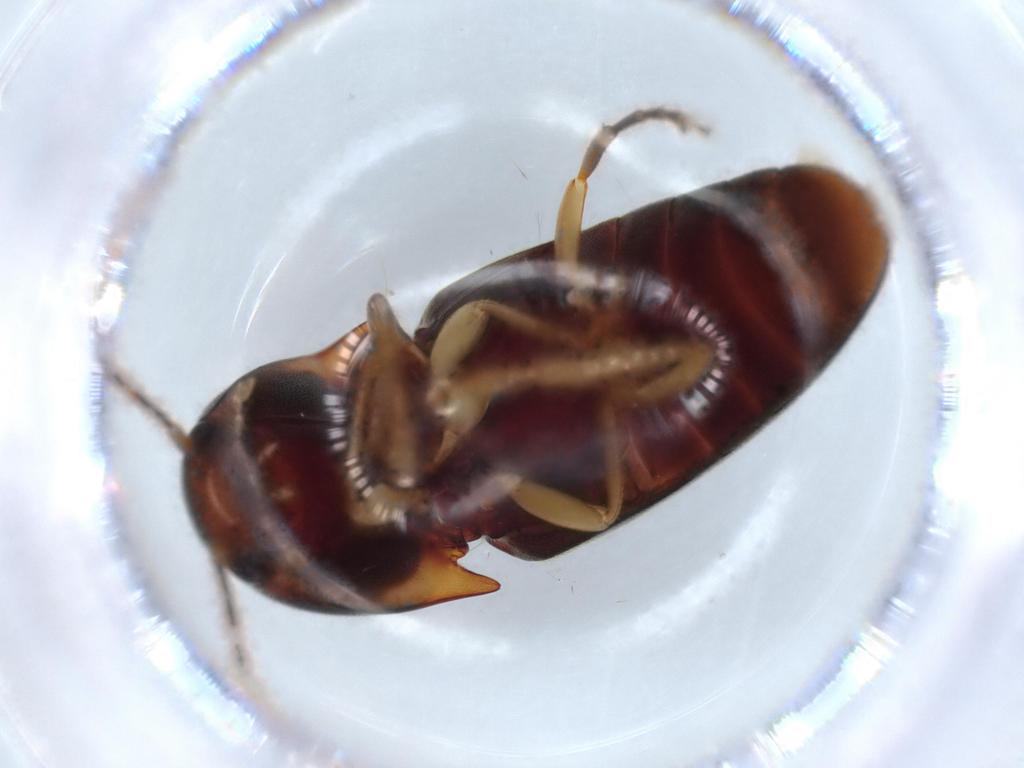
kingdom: Animalia
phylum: Arthropoda
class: Insecta
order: Coleoptera
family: Elateridae
